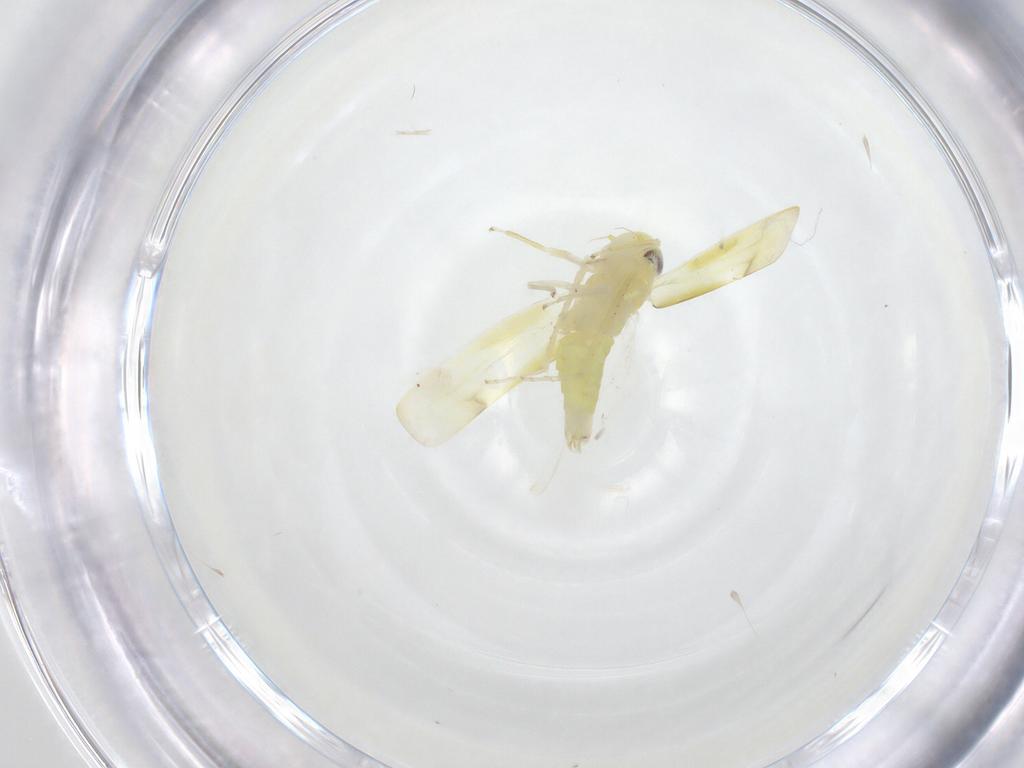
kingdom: Animalia
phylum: Arthropoda
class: Insecta
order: Hemiptera
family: Cicadellidae
